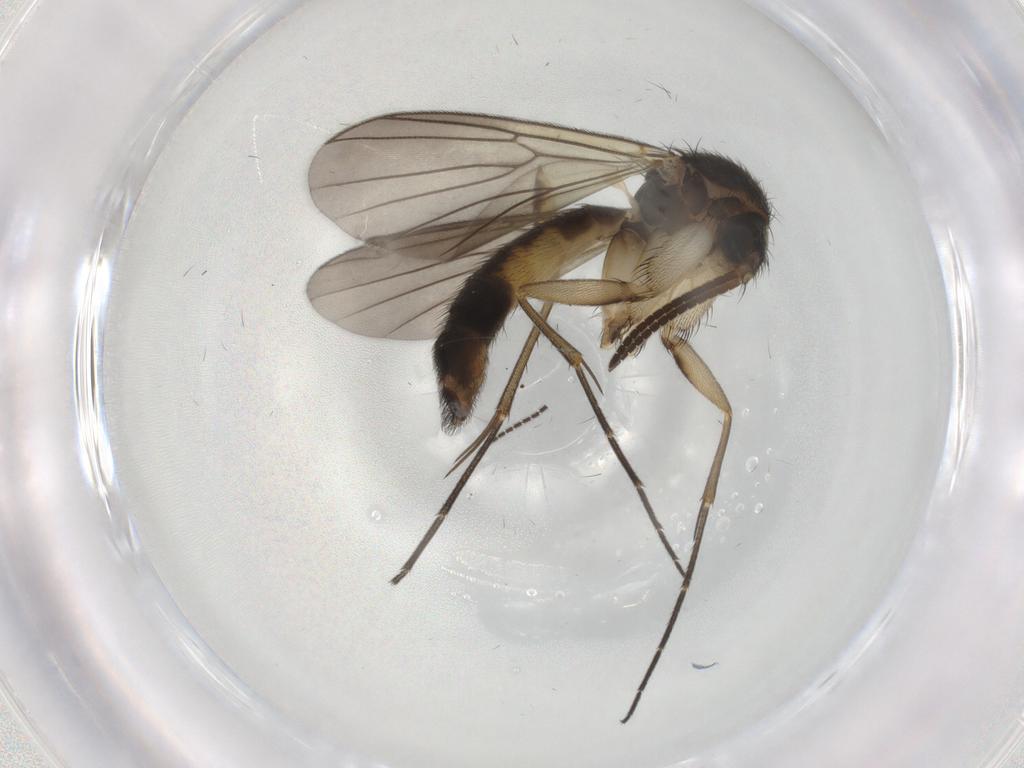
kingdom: Animalia
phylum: Arthropoda
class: Insecta
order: Diptera
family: Mycetophilidae
